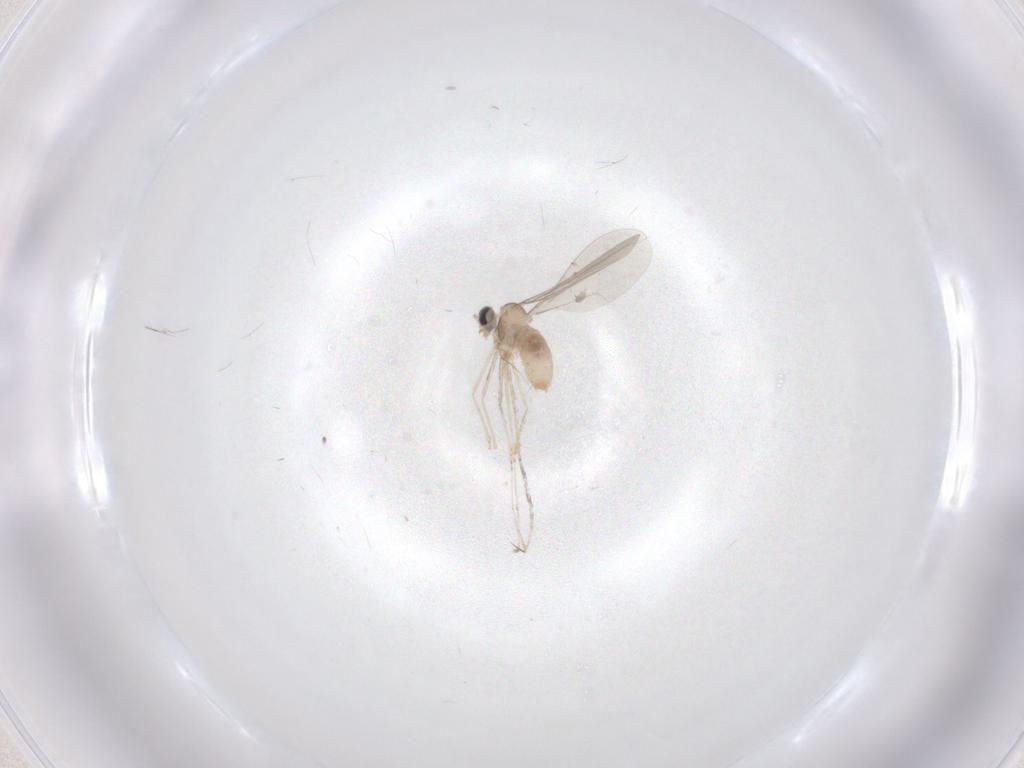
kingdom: Animalia
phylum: Arthropoda
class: Insecta
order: Diptera
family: Cecidomyiidae
